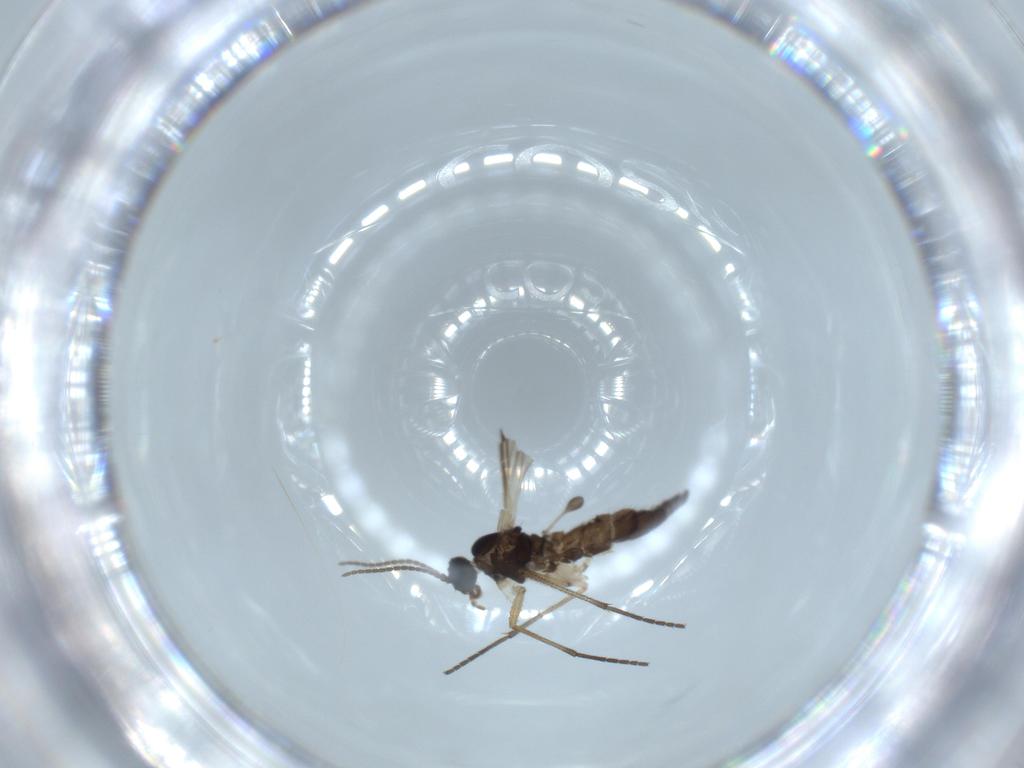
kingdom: Animalia
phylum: Arthropoda
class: Insecta
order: Diptera
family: Sciaridae
